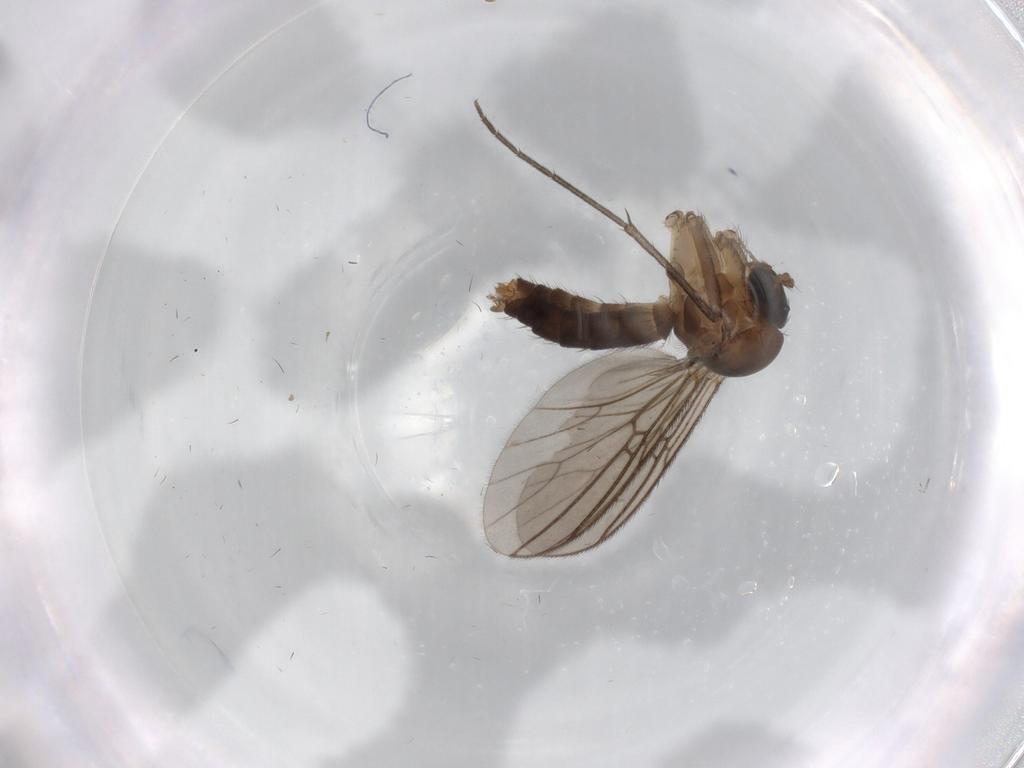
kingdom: Animalia
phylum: Arthropoda
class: Insecta
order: Diptera
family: Mycetophilidae
